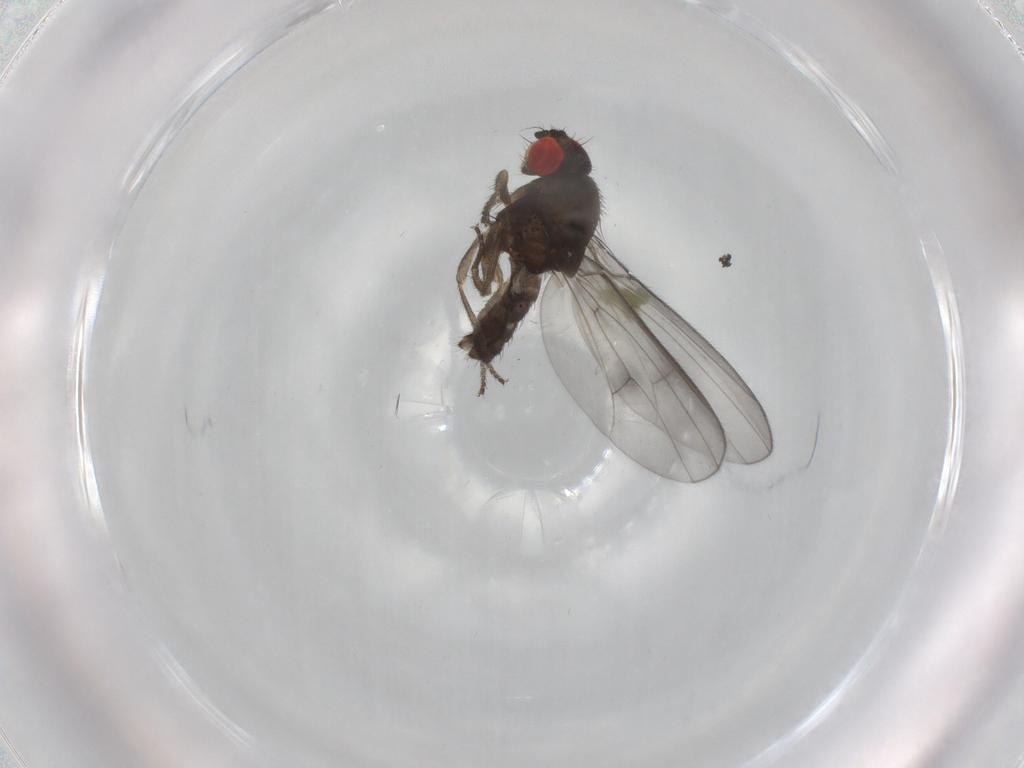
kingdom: Animalia
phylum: Arthropoda
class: Insecta
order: Diptera
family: Drosophilidae
